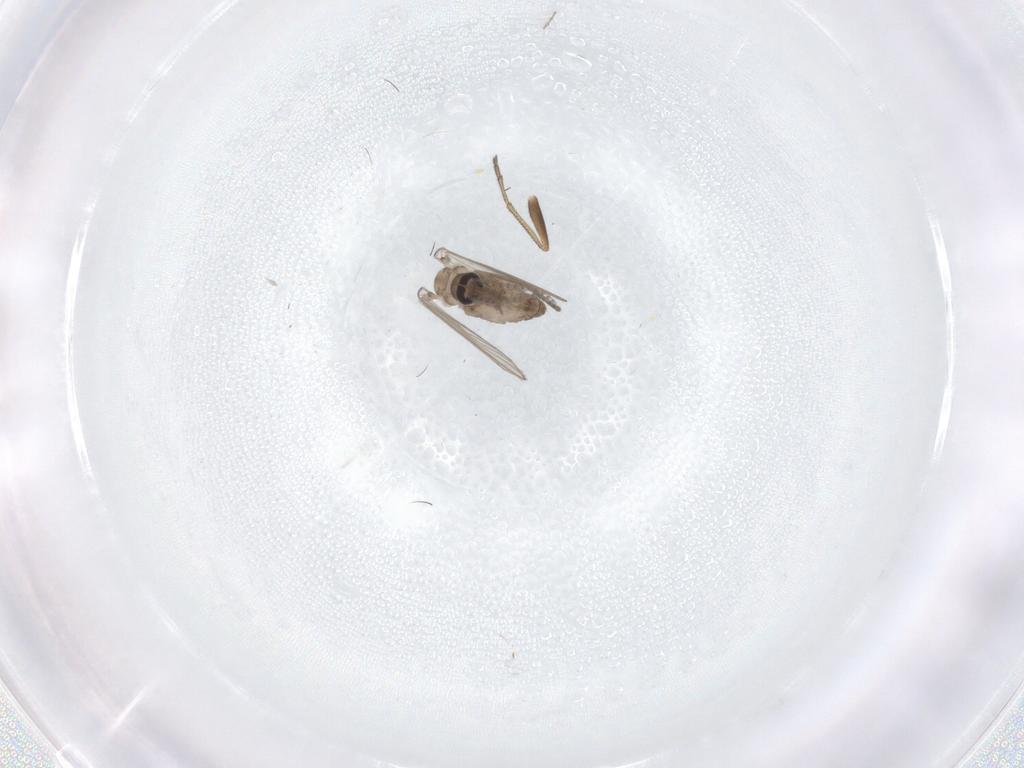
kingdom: Animalia
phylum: Arthropoda
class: Insecta
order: Diptera
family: Psychodidae
